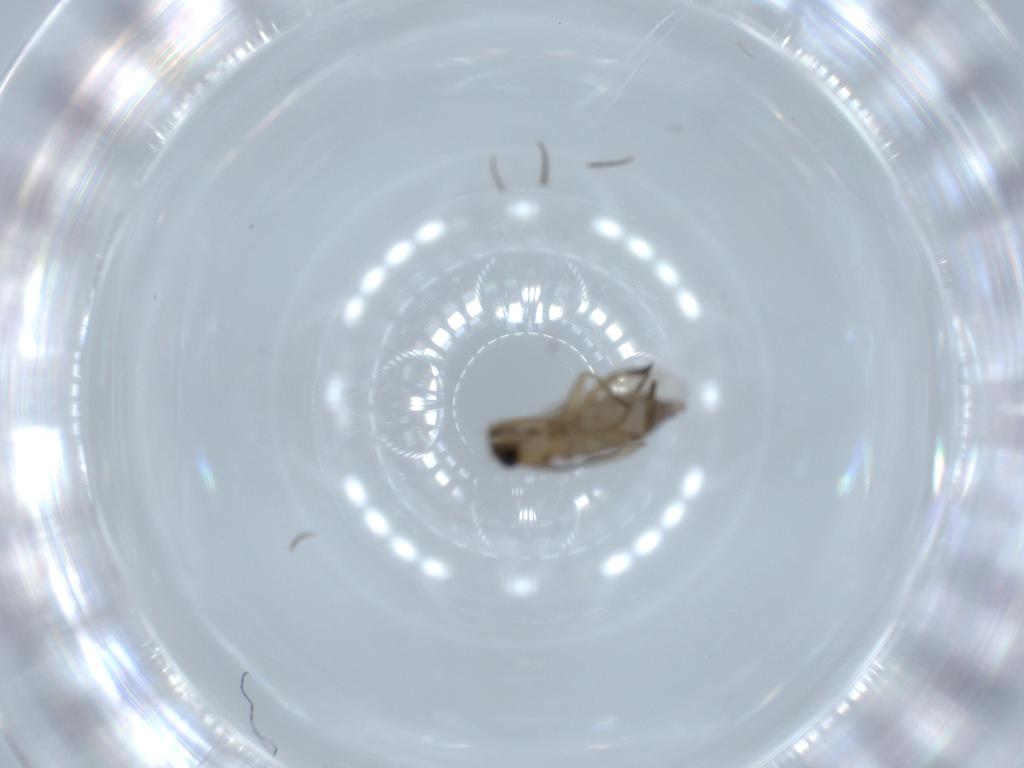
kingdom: Animalia
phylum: Arthropoda
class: Insecta
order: Diptera
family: Phoridae
